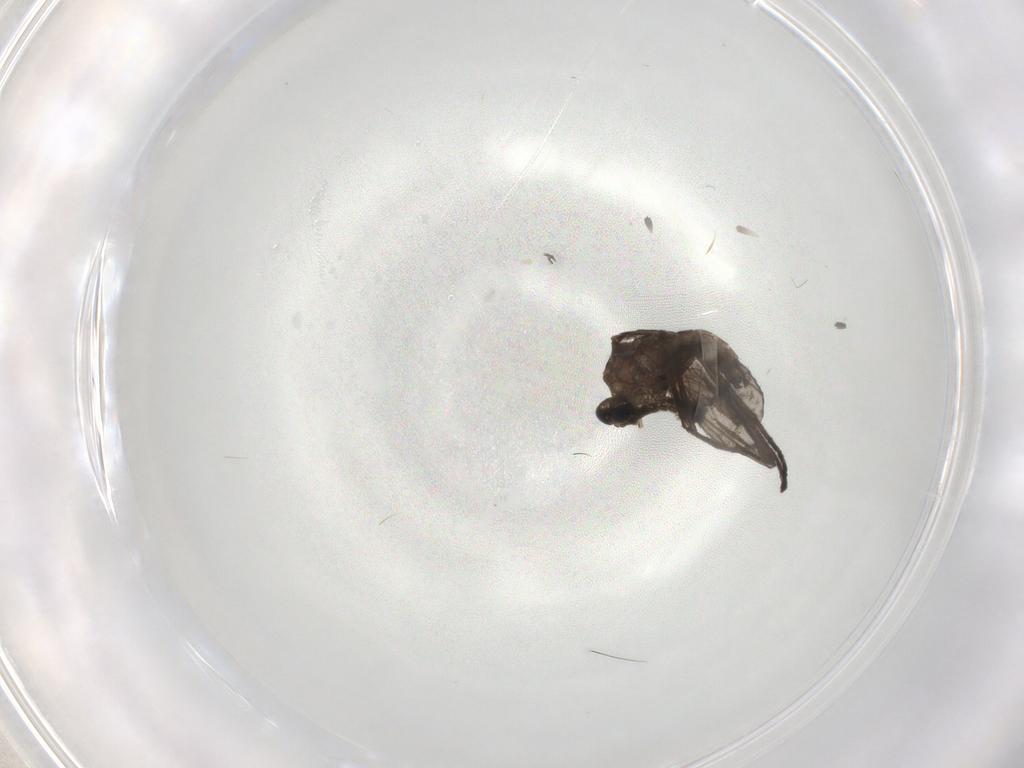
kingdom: Animalia
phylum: Arthropoda
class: Insecta
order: Diptera
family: Sciaridae
